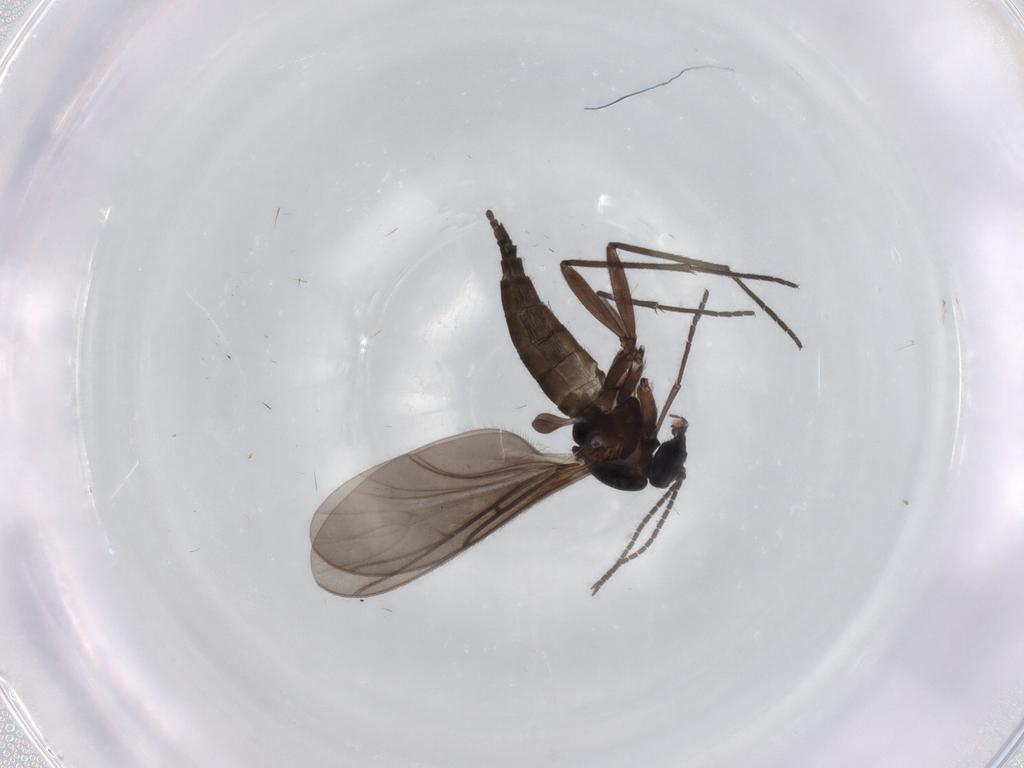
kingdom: Animalia
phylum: Arthropoda
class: Insecta
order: Diptera
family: Sciaridae
